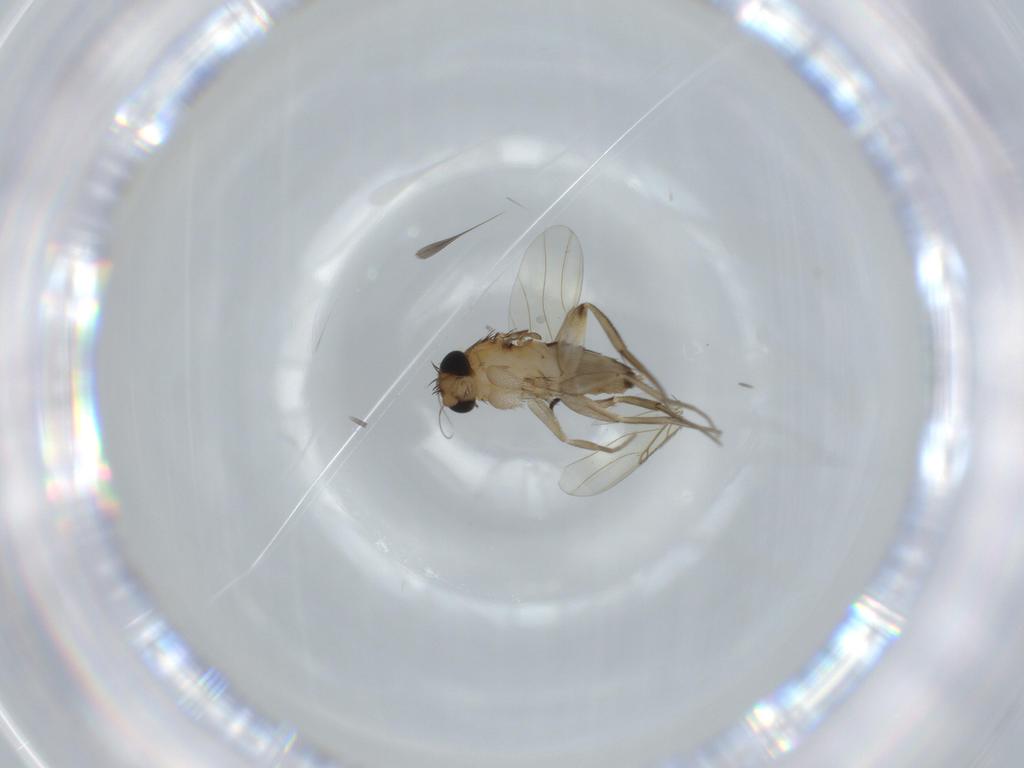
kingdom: Animalia
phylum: Arthropoda
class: Insecta
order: Diptera
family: Phoridae
